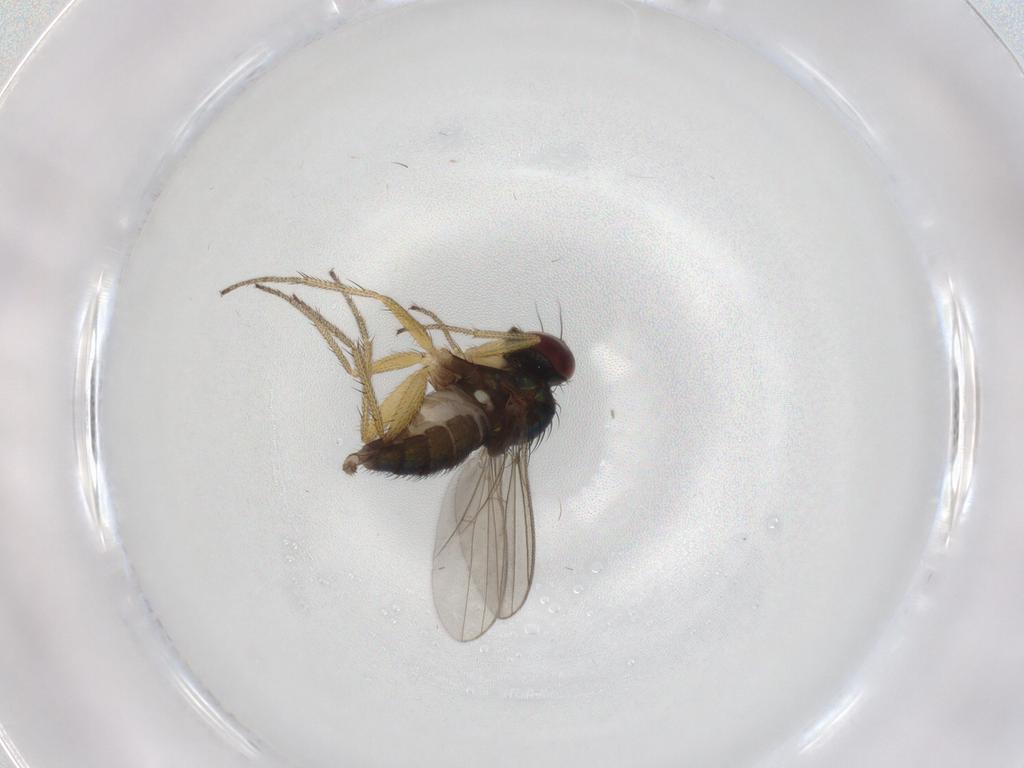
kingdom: Animalia
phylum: Arthropoda
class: Insecta
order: Diptera
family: Dolichopodidae
